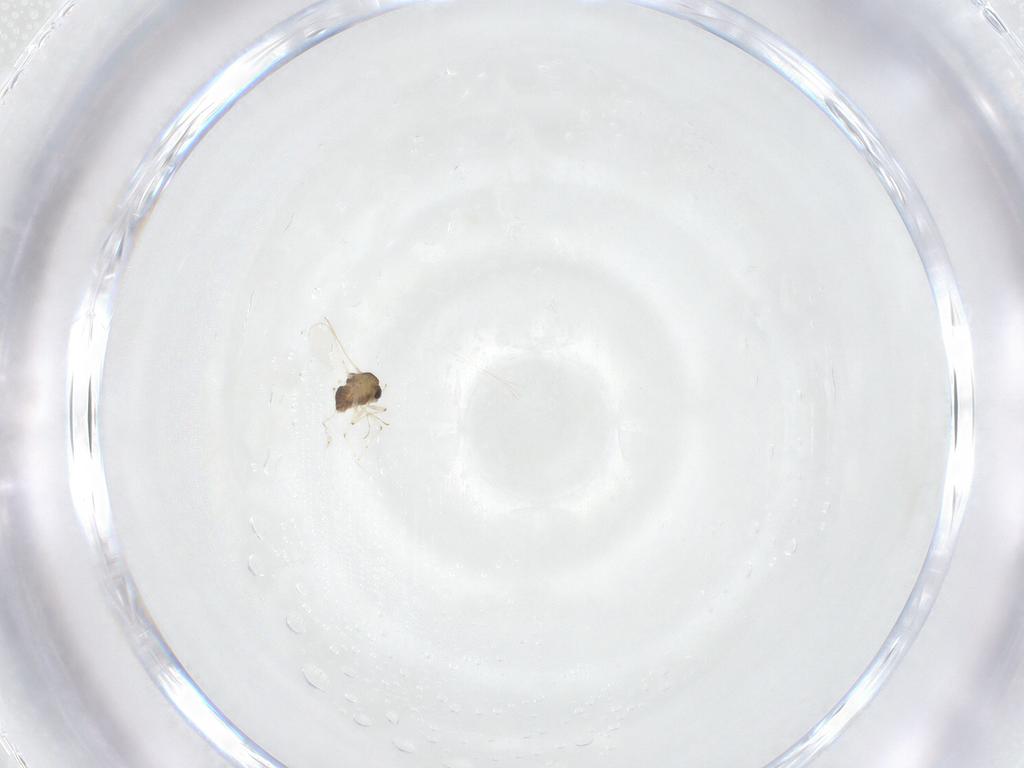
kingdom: Animalia
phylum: Arthropoda
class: Insecta
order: Diptera
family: Chironomidae
